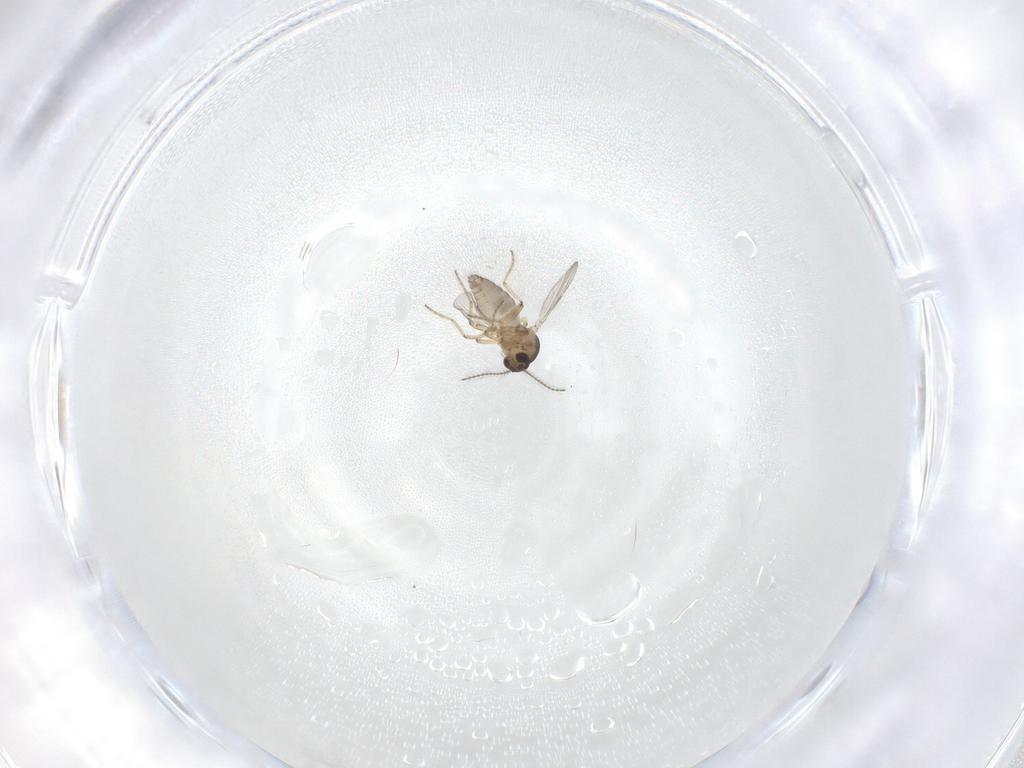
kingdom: Animalia
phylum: Arthropoda
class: Insecta
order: Diptera
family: Ceratopogonidae
